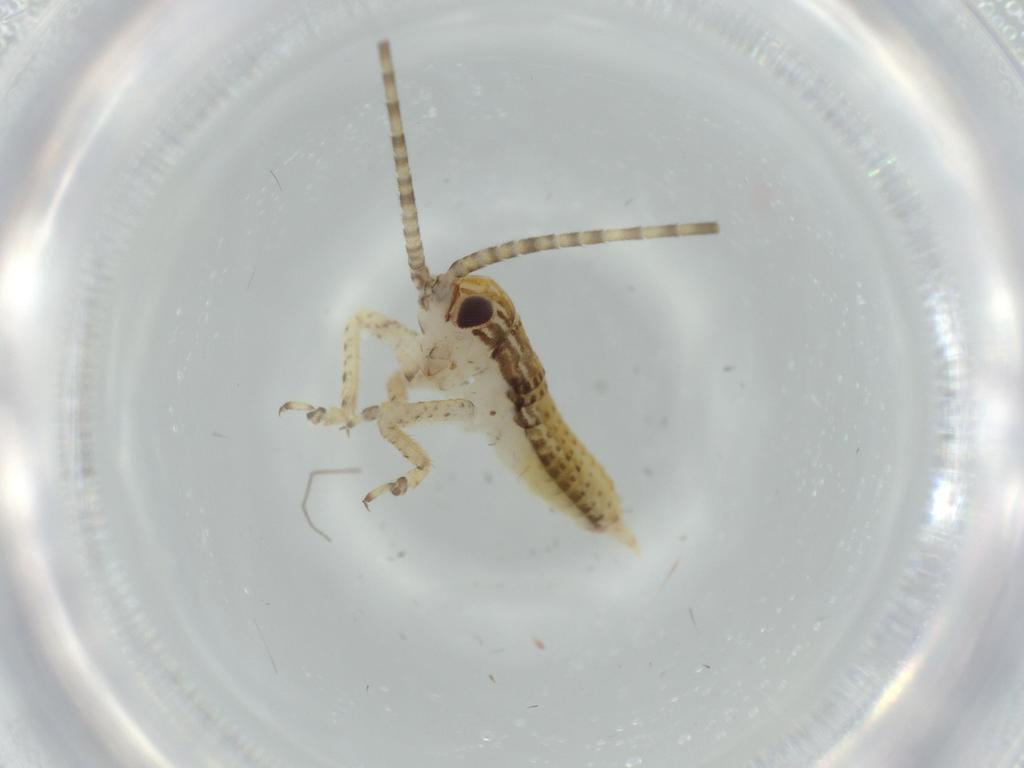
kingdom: Animalia
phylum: Arthropoda
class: Insecta
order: Orthoptera
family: Gryllidae
